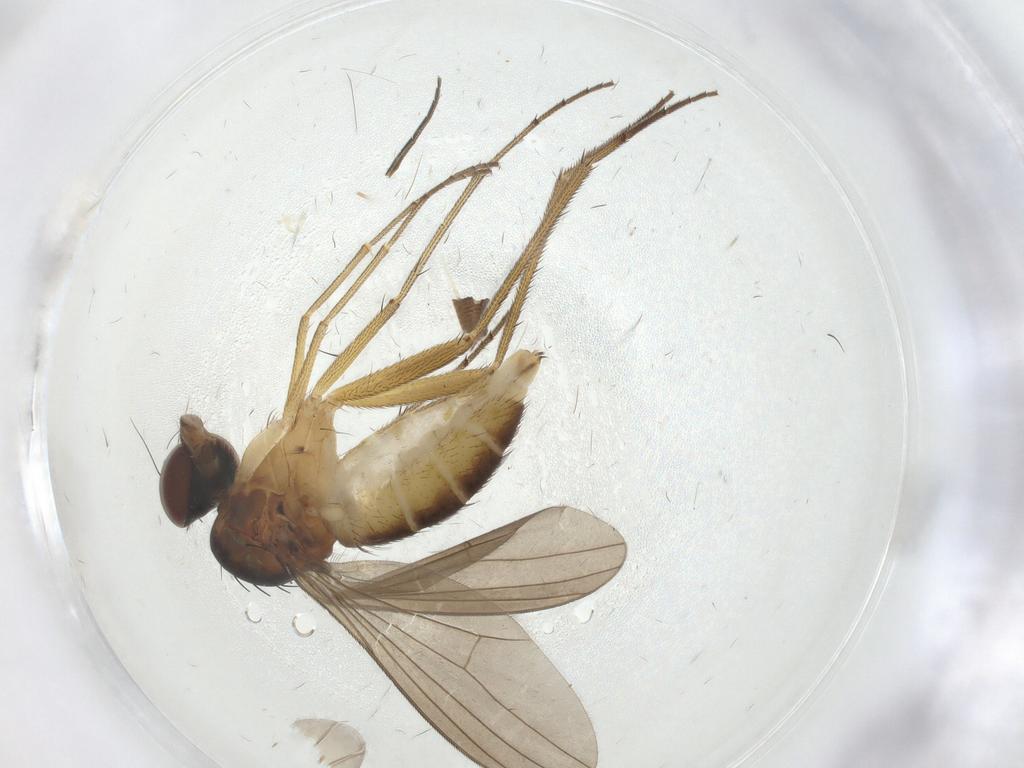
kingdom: Animalia
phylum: Arthropoda
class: Insecta
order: Diptera
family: Dolichopodidae
